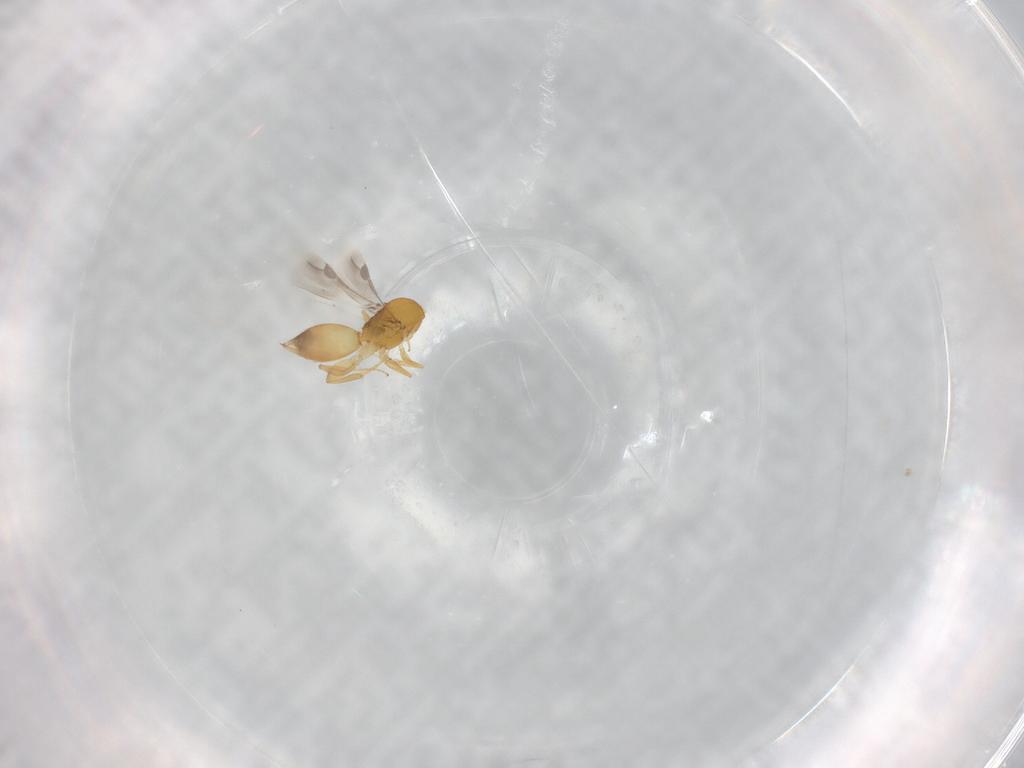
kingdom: Animalia
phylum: Arthropoda
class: Insecta
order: Hymenoptera
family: Megaspilidae
